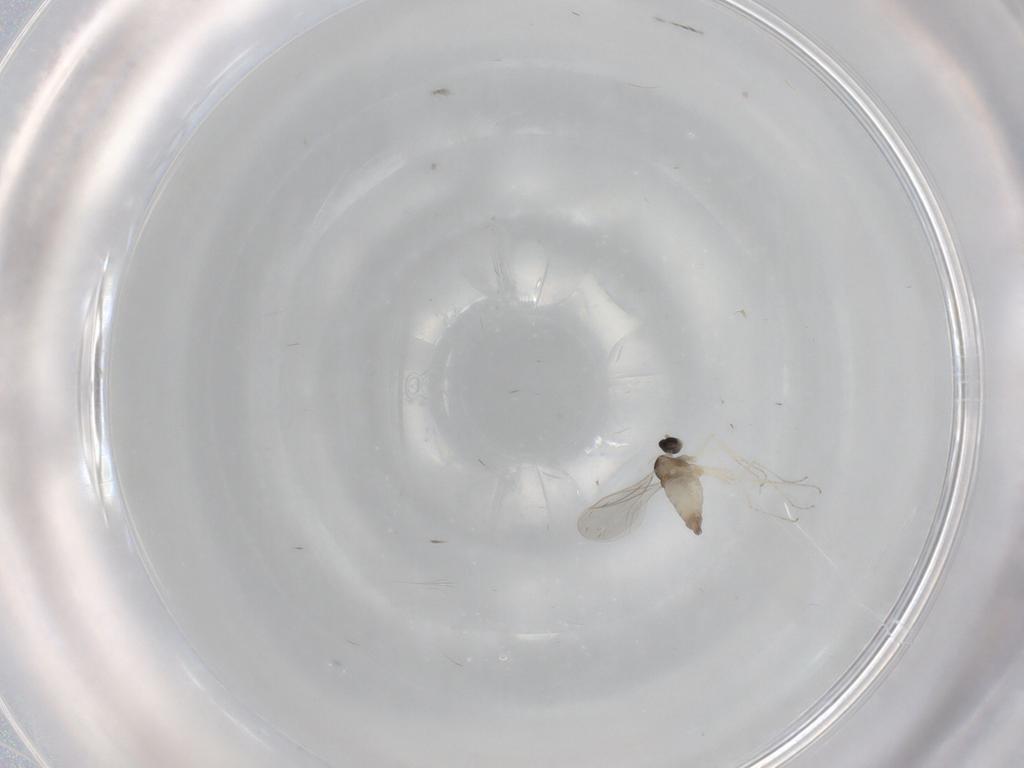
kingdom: Animalia
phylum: Arthropoda
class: Insecta
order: Diptera
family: Cecidomyiidae
